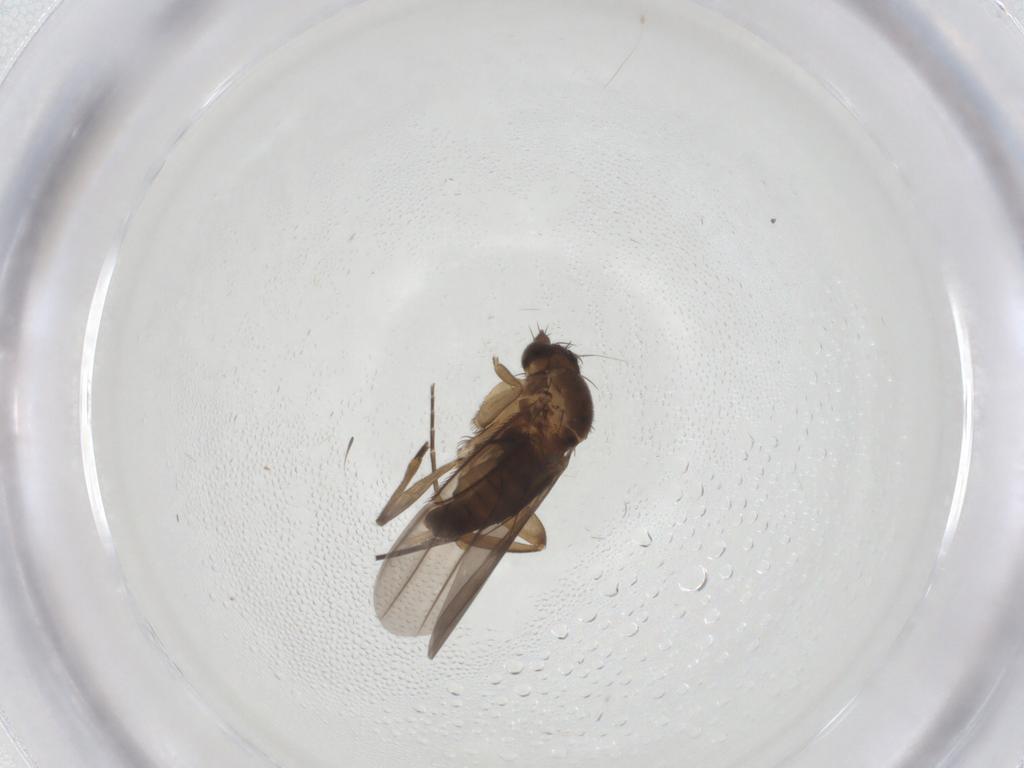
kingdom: Animalia
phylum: Arthropoda
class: Insecta
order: Diptera
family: Phoridae
